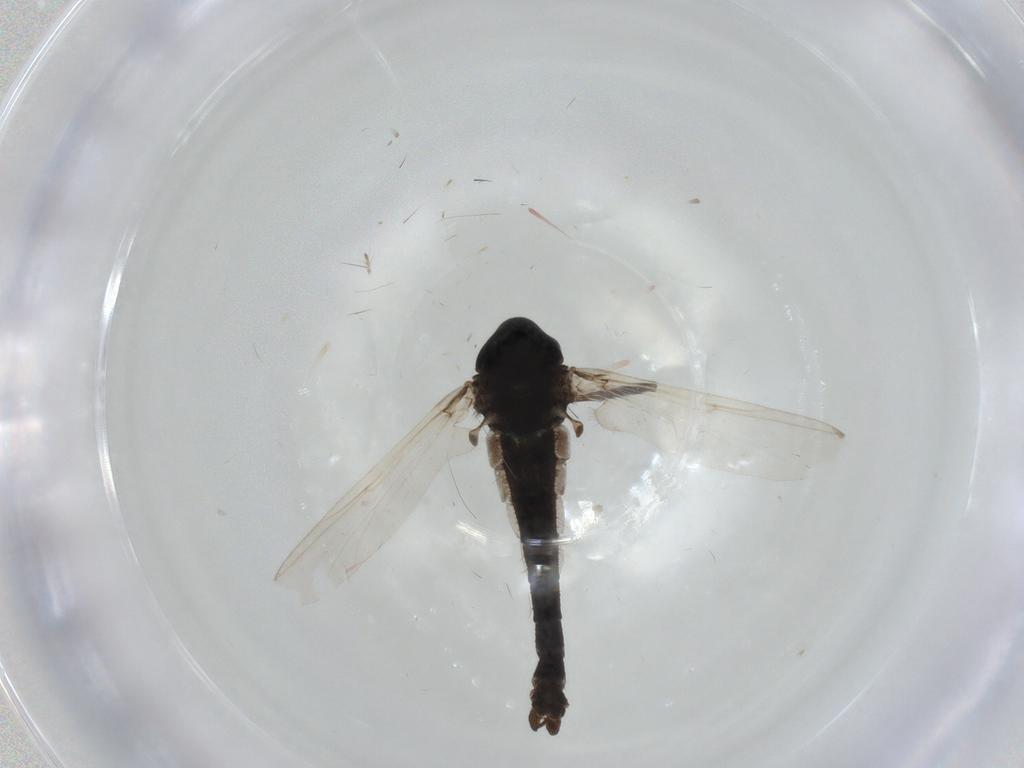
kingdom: Animalia
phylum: Arthropoda
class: Insecta
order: Diptera
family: Chironomidae
